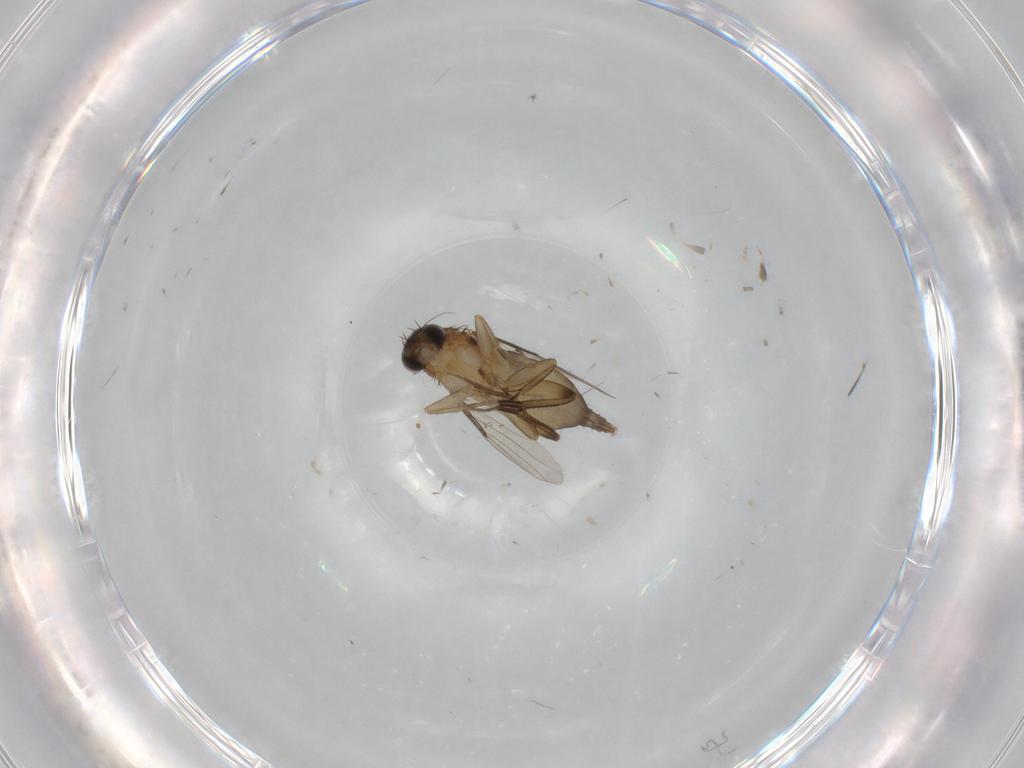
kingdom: Animalia
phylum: Arthropoda
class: Insecta
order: Diptera
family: Phoridae
